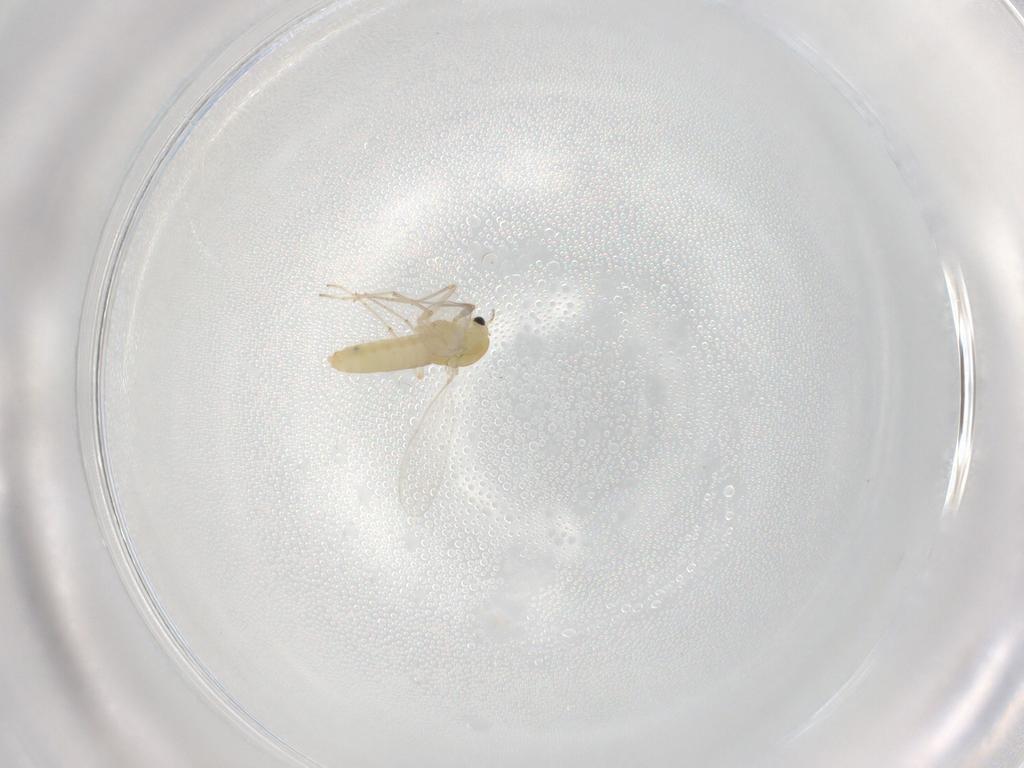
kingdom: Animalia
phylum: Arthropoda
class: Insecta
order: Diptera
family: Chironomidae
